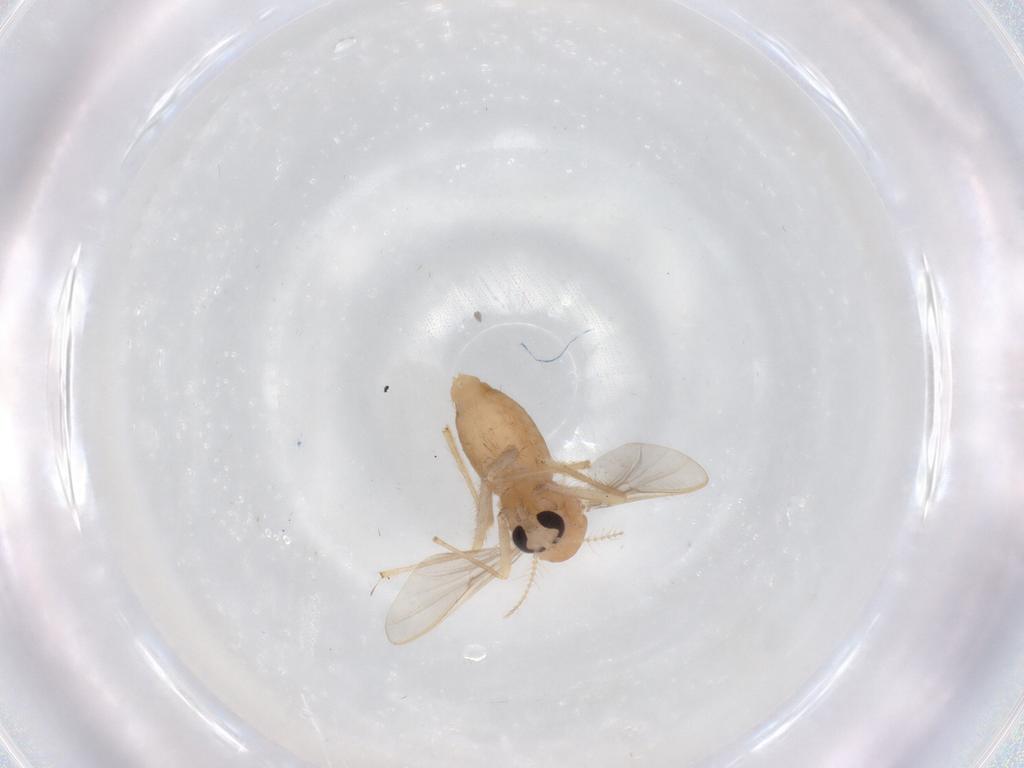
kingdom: Animalia
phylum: Arthropoda
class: Insecta
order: Diptera
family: Chironomidae
